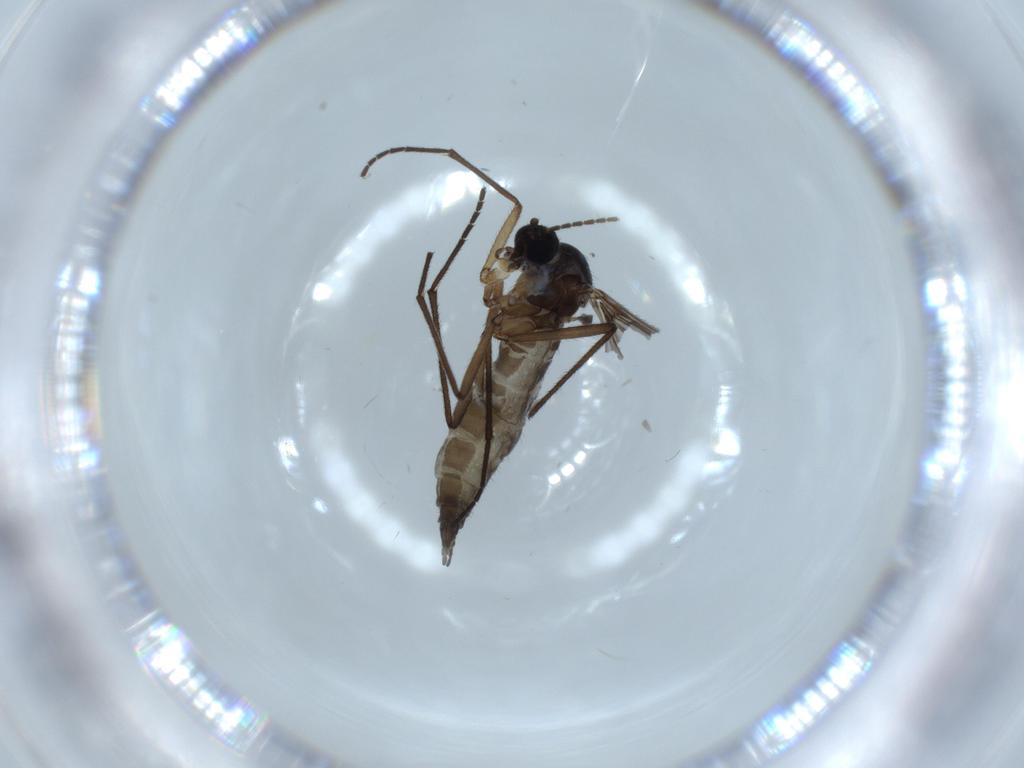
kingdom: Animalia
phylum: Arthropoda
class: Insecta
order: Diptera
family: Sciaridae
